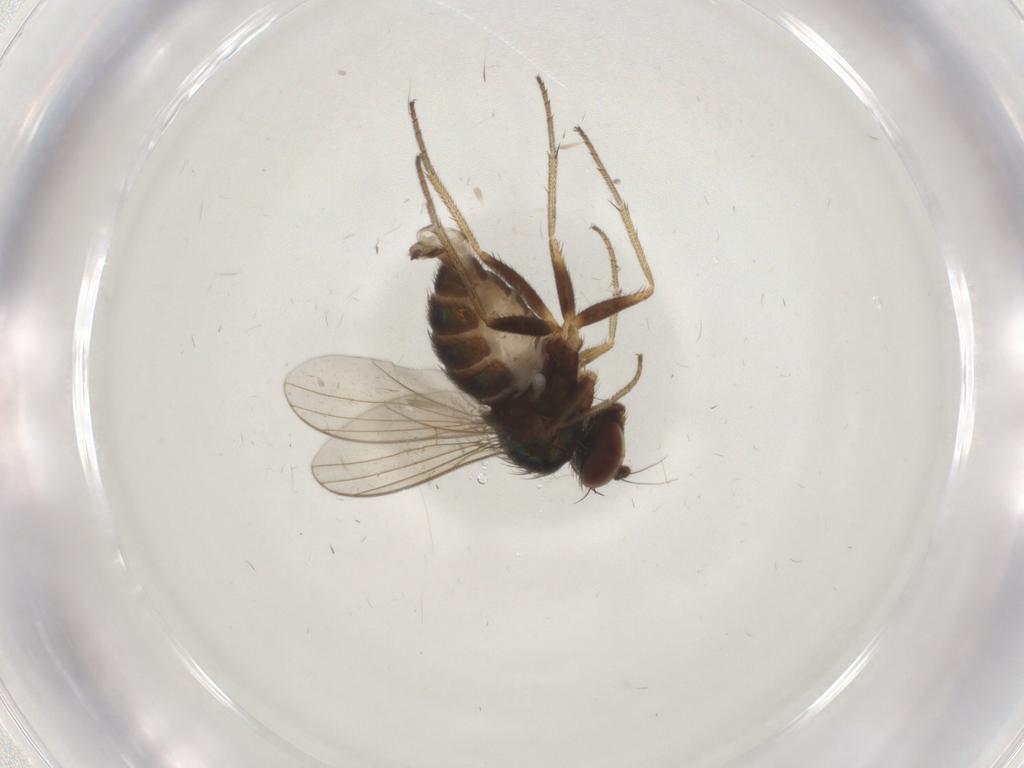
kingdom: Animalia
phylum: Arthropoda
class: Insecta
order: Diptera
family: Dolichopodidae
